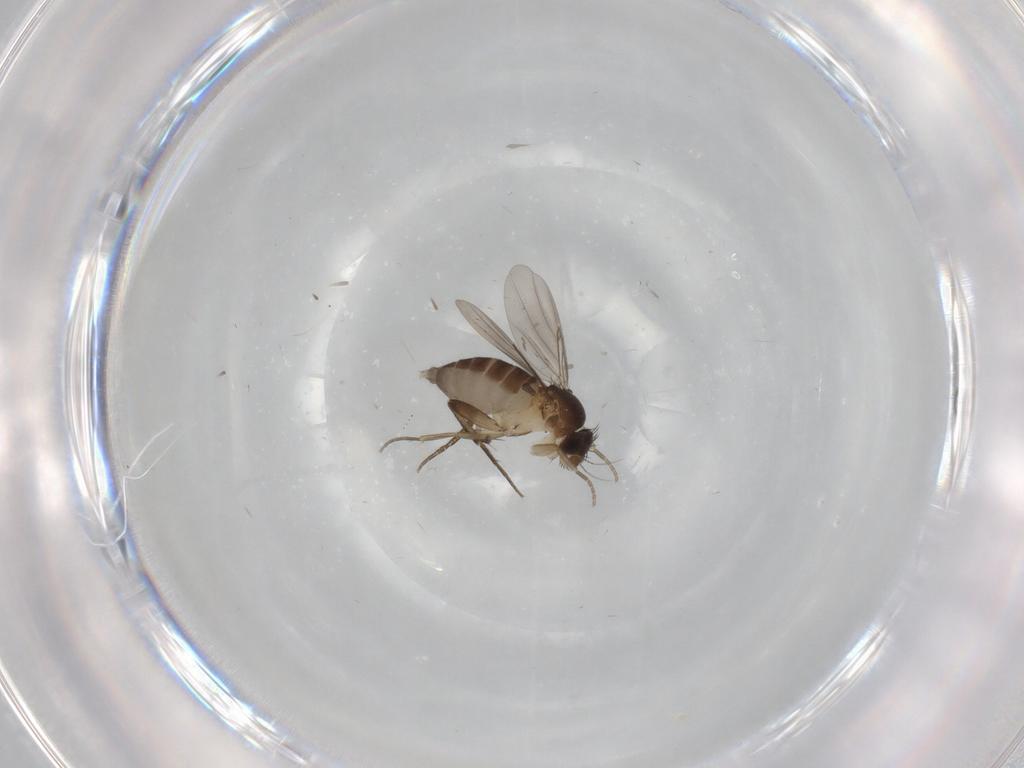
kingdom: Animalia
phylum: Arthropoda
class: Insecta
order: Diptera
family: Phoridae
